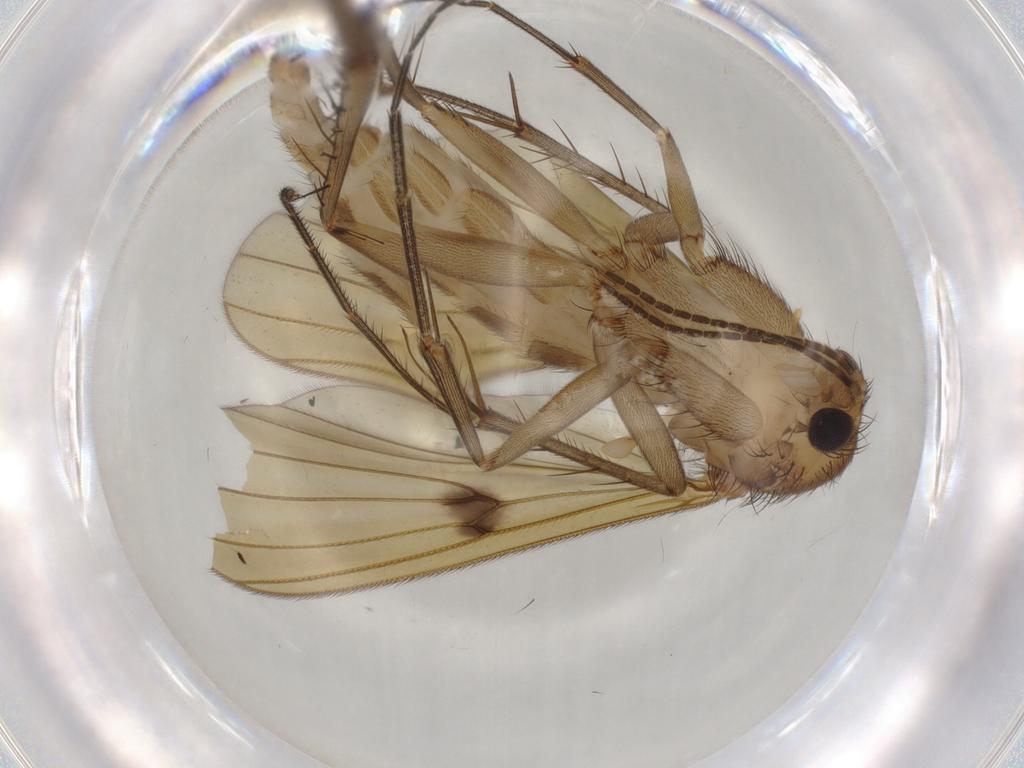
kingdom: Animalia
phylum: Arthropoda
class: Insecta
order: Diptera
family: Mycetophilidae
